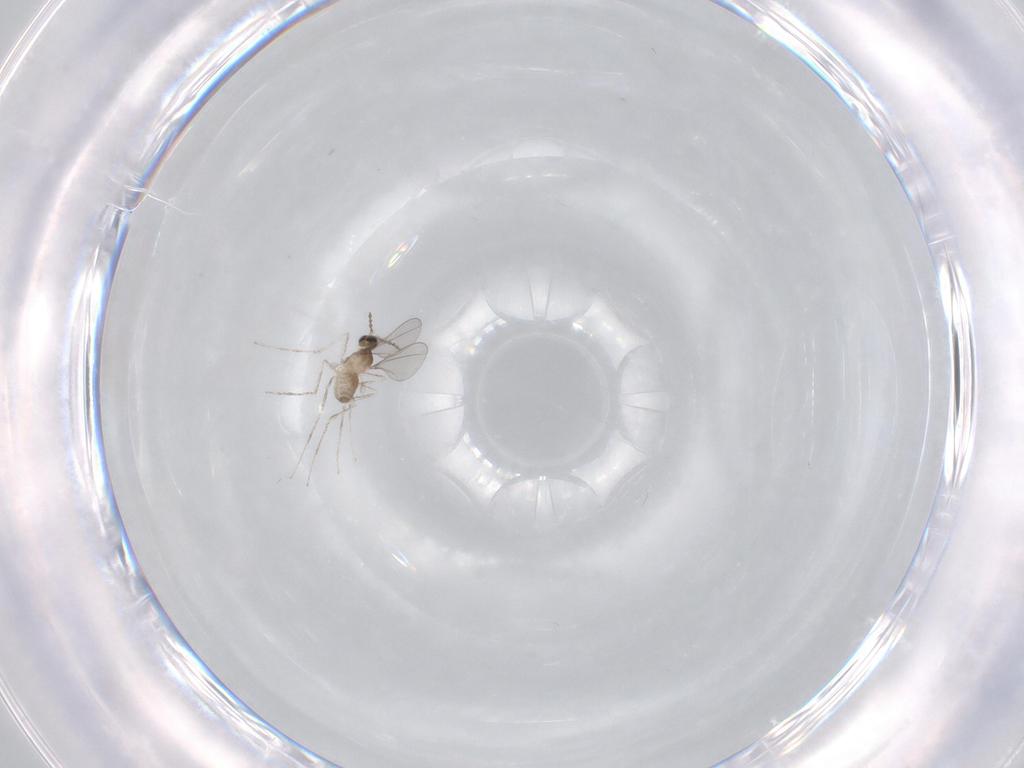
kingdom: Animalia
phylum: Arthropoda
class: Insecta
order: Diptera
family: Cecidomyiidae
